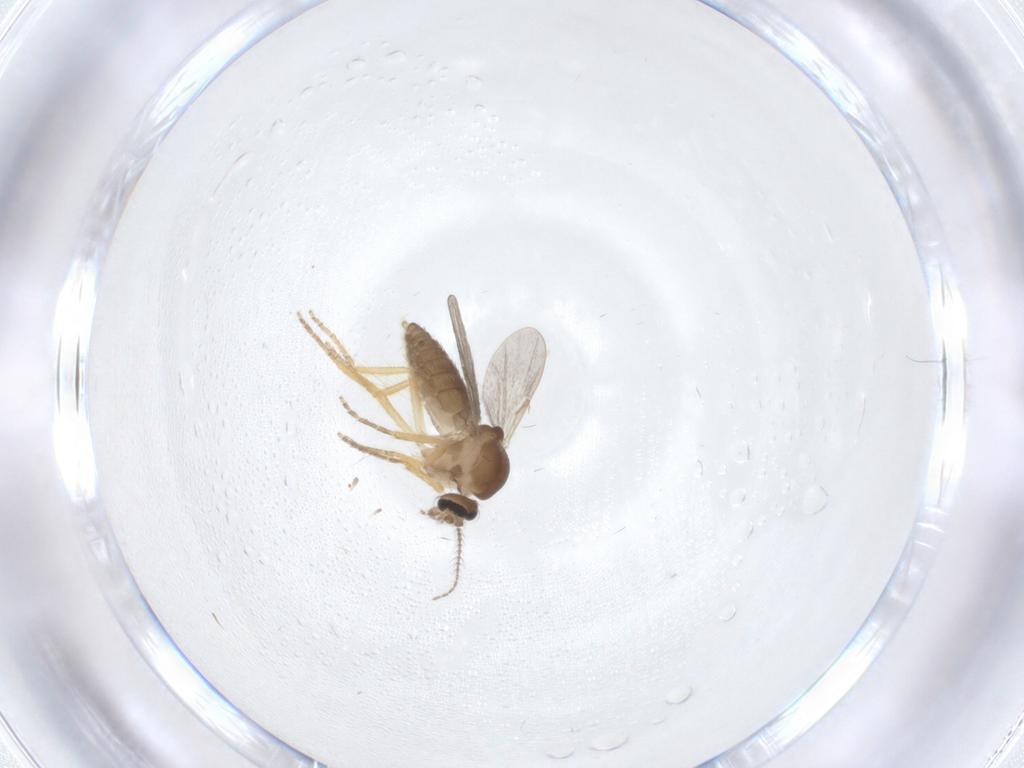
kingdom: Animalia
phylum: Arthropoda
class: Insecta
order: Diptera
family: Ceratopogonidae
